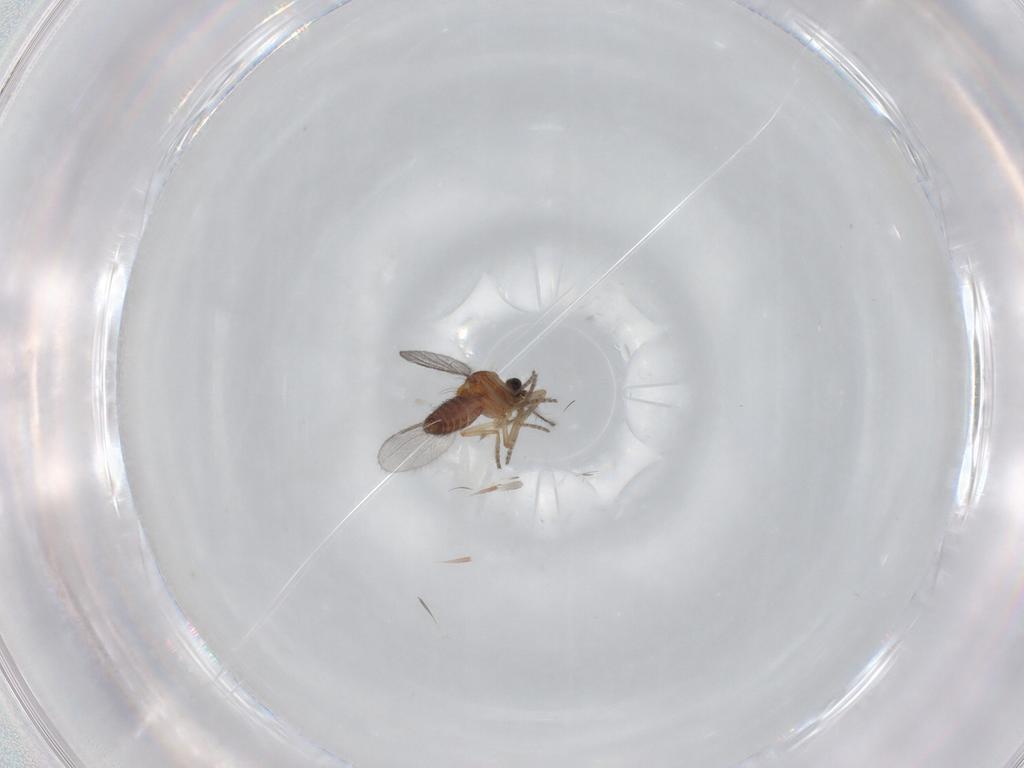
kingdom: Animalia
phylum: Arthropoda
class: Insecta
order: Diptera
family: Ceratopogonidae
